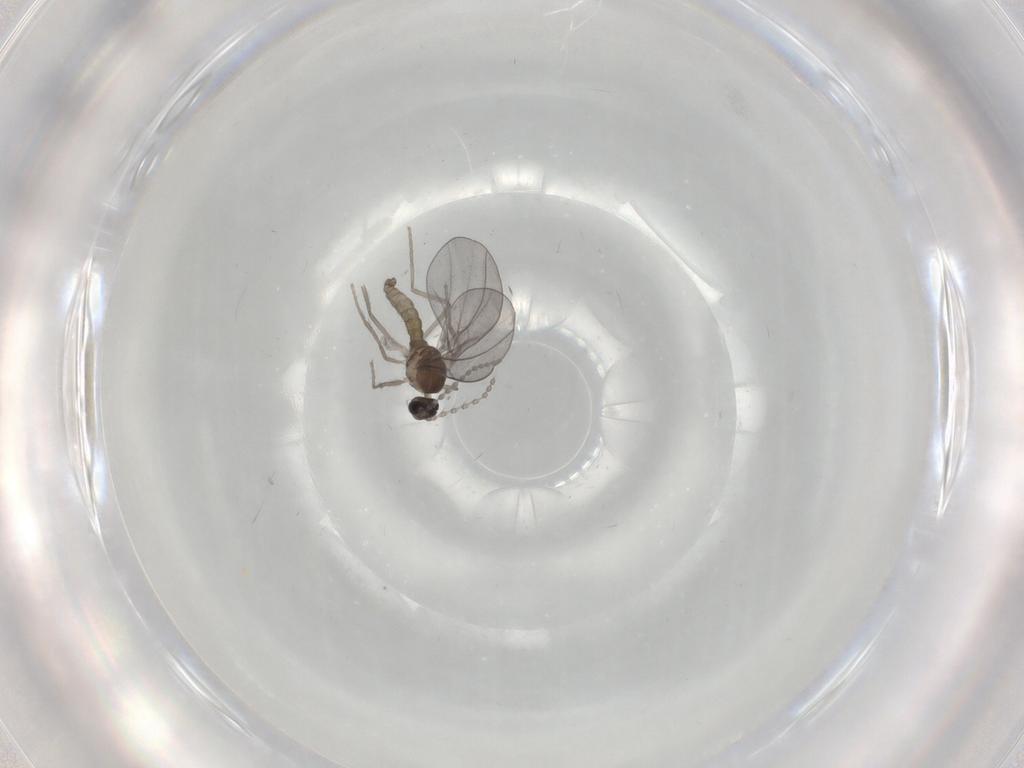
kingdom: Animalia
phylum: Arthropoda
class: Insecta
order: Diptera
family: Cecidomyiidae
